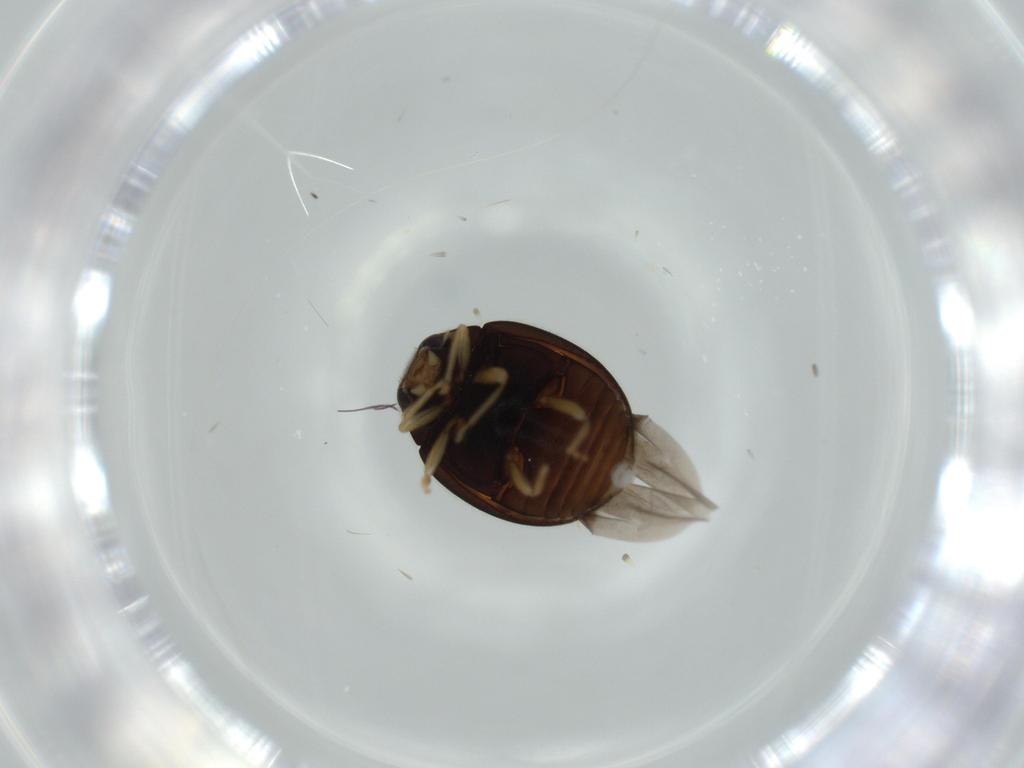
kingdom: Animalia
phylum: Arthropoda
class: Insecta
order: Coleoptera
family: Coccinellidae
